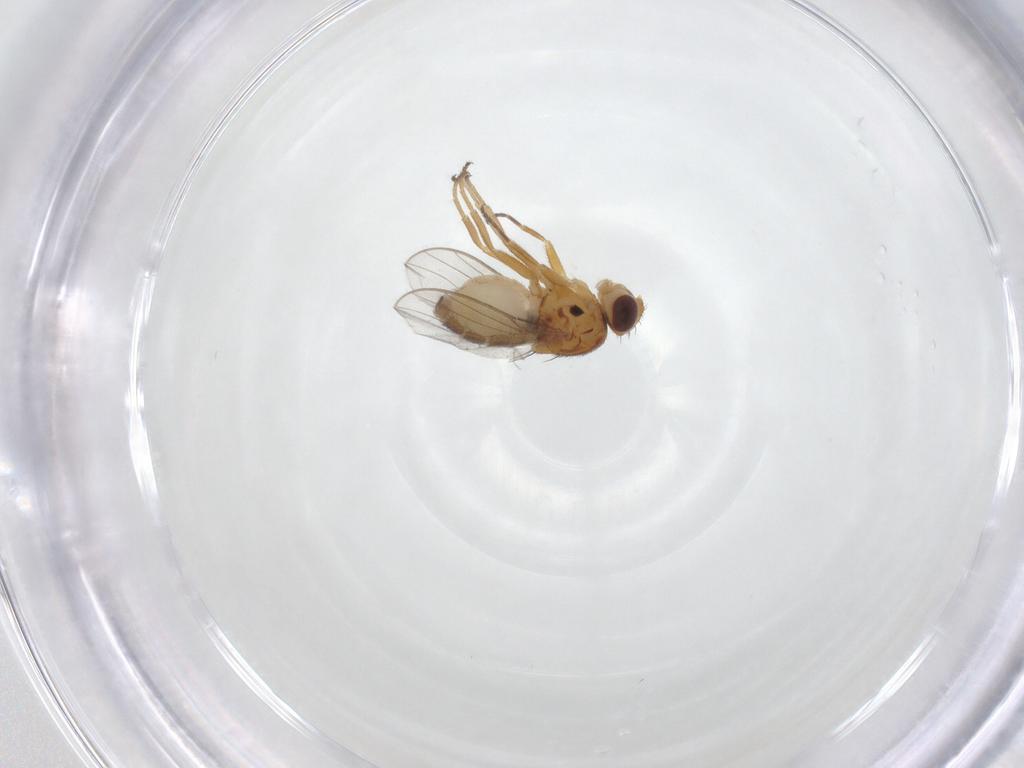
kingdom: Animalia
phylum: Arthropoda
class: Insecta
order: Diptera
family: Chloropidae
